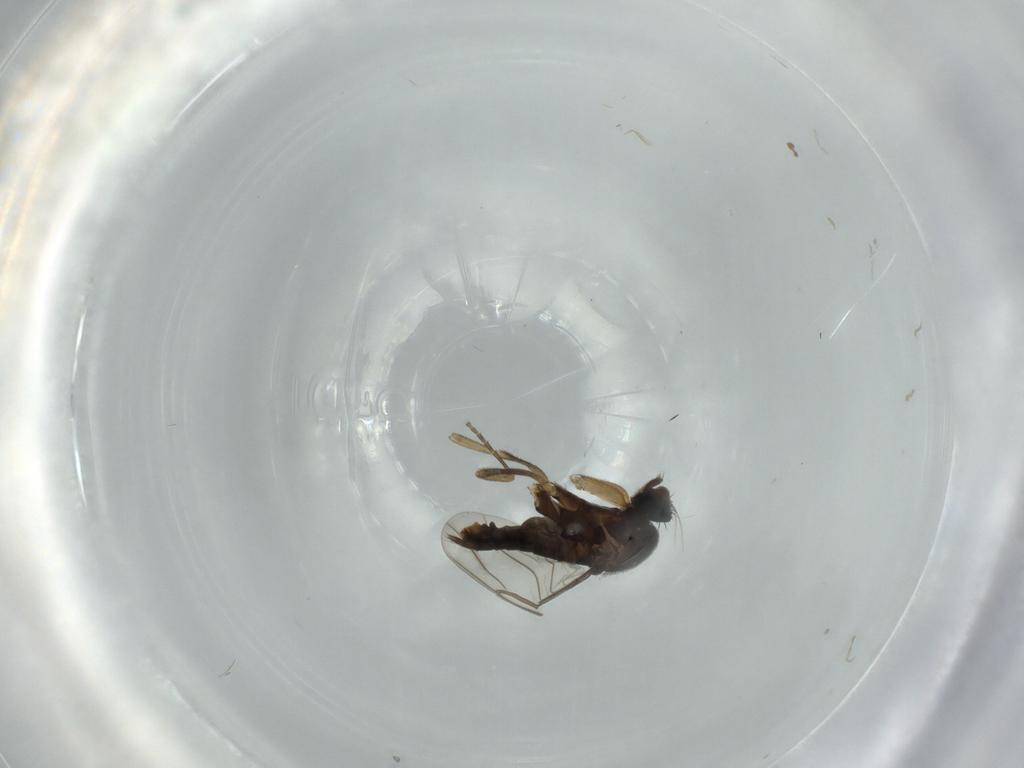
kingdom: Animalia
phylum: Arthropoda
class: Insecta
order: Diptera
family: Phoridae
